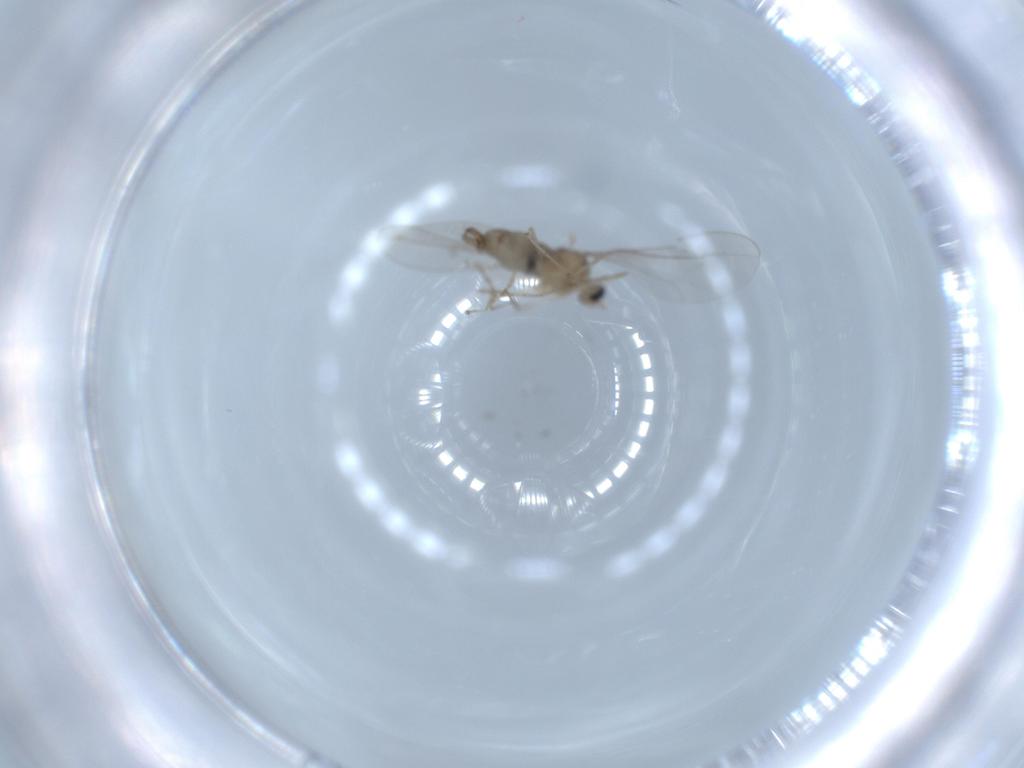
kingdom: Animalia
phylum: Arthropoda
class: Insecta
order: Diptera
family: Cecidomyiidae
